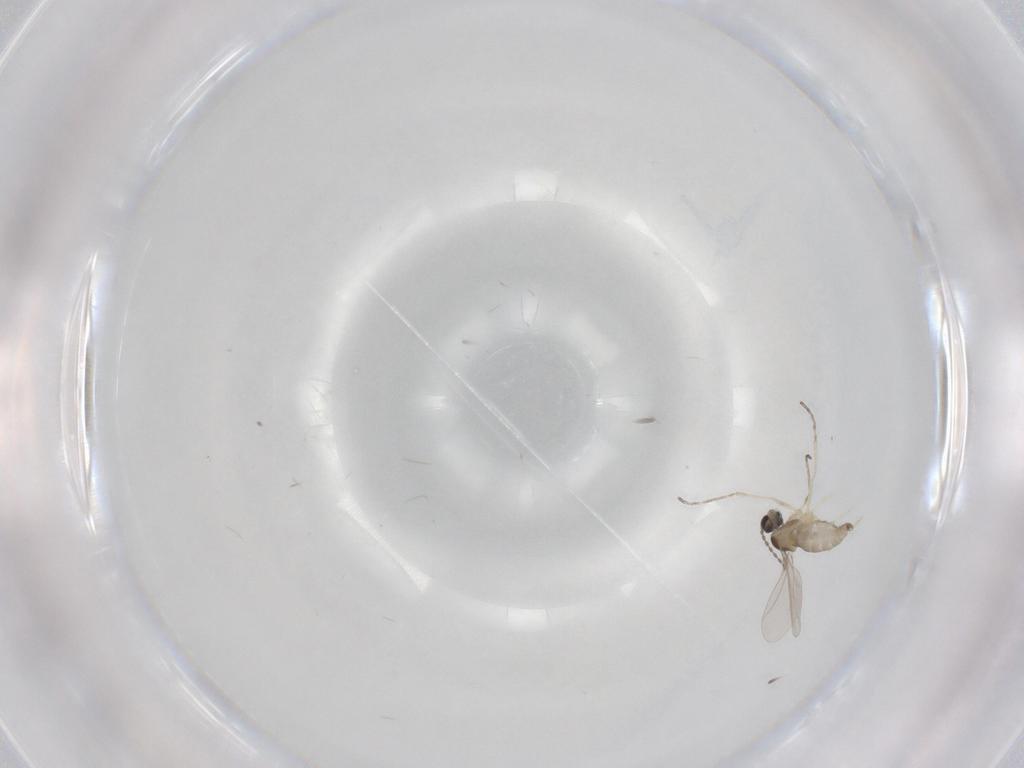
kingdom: Animalia
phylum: Arthropoda
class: Insecta
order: Diptera
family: Cecidomyiidae
